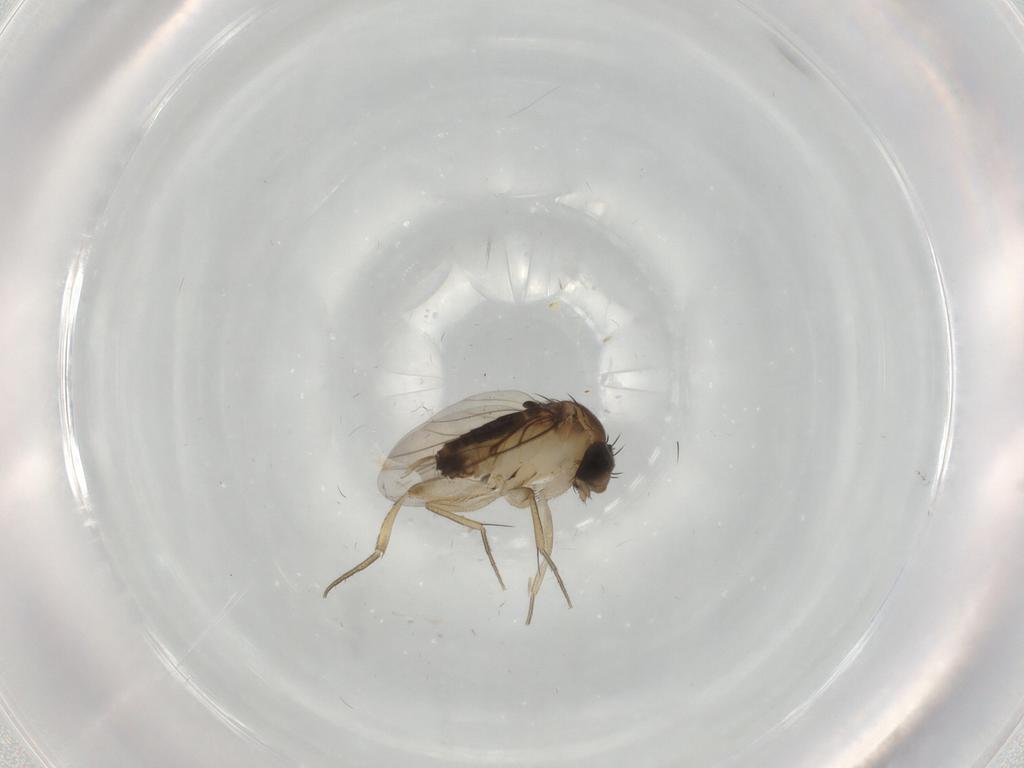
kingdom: Animalia
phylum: Arthropoda
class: Insecta
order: Diptera
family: Phoridae
